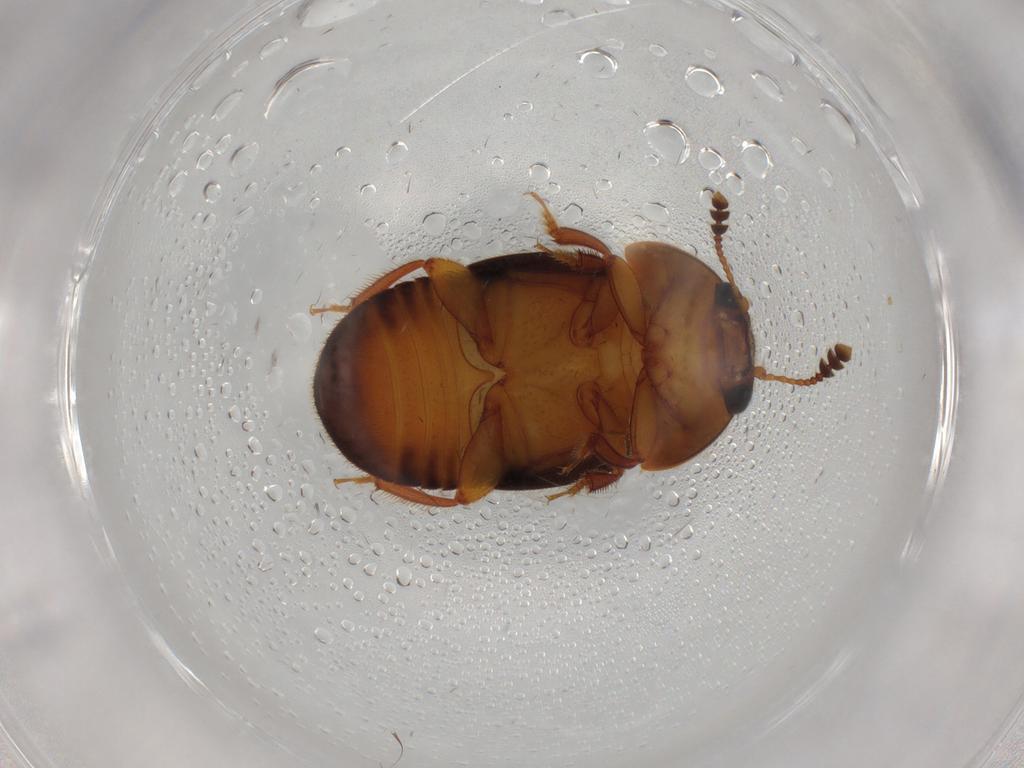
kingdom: Animalia
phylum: Arthropoda
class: Insecta
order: Coleoptera
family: Nitidulidae
